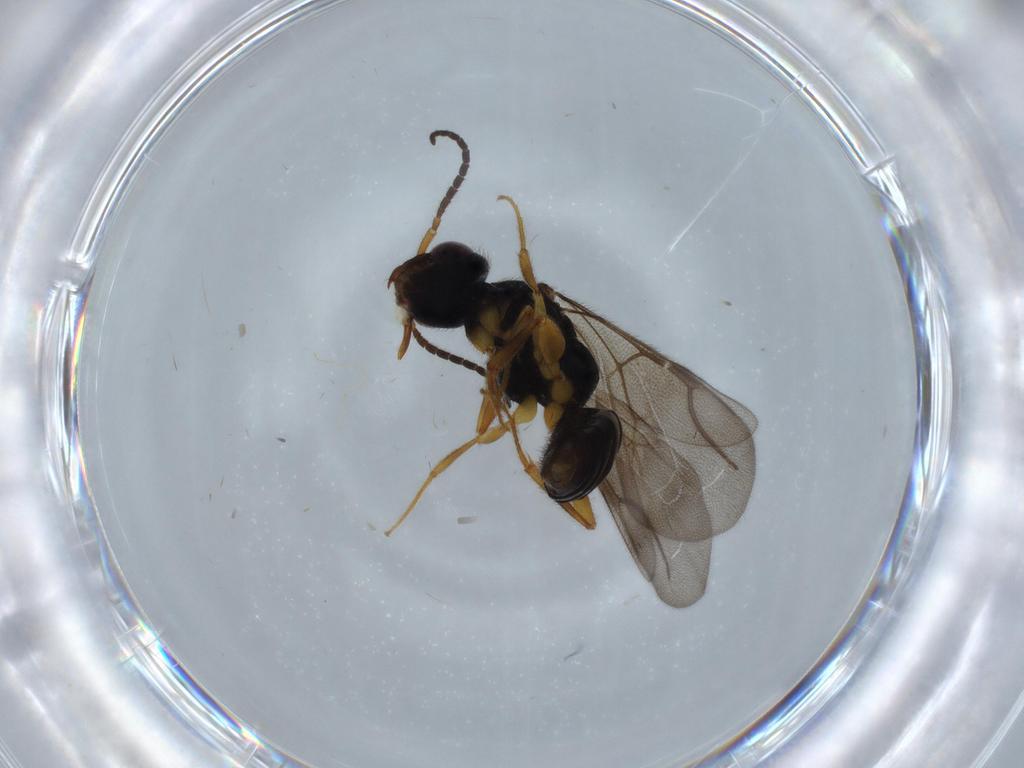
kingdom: Animalia
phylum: Arthropoda
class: Insecta
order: Hymenoptera
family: Bethylidae
